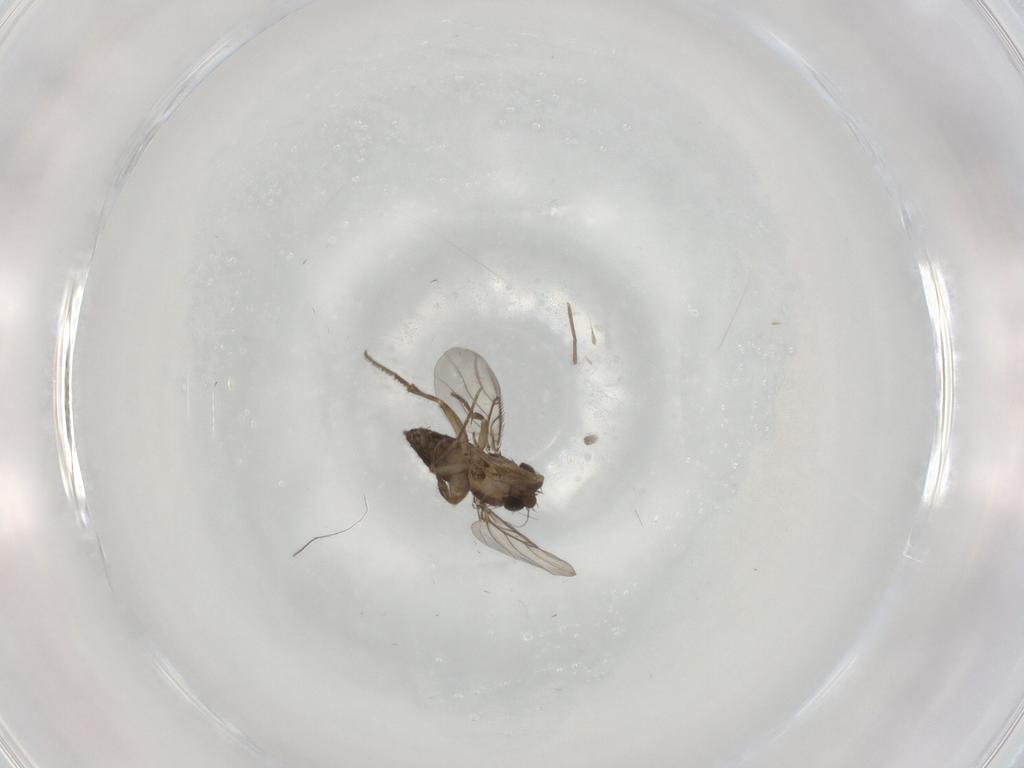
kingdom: Animalia
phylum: Arthropoda
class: Insecta
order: Diptera
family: Phoridae
